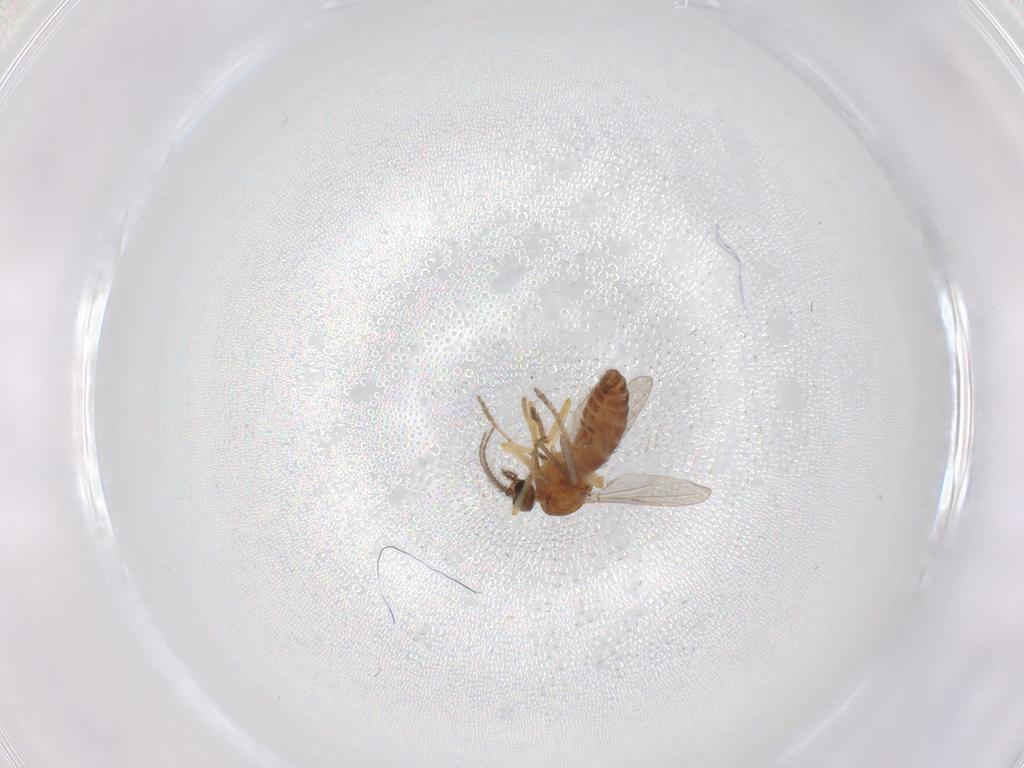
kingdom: Animalia
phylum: Arthropoda
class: Insecta
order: Diptera
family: Ceratopogonidae
